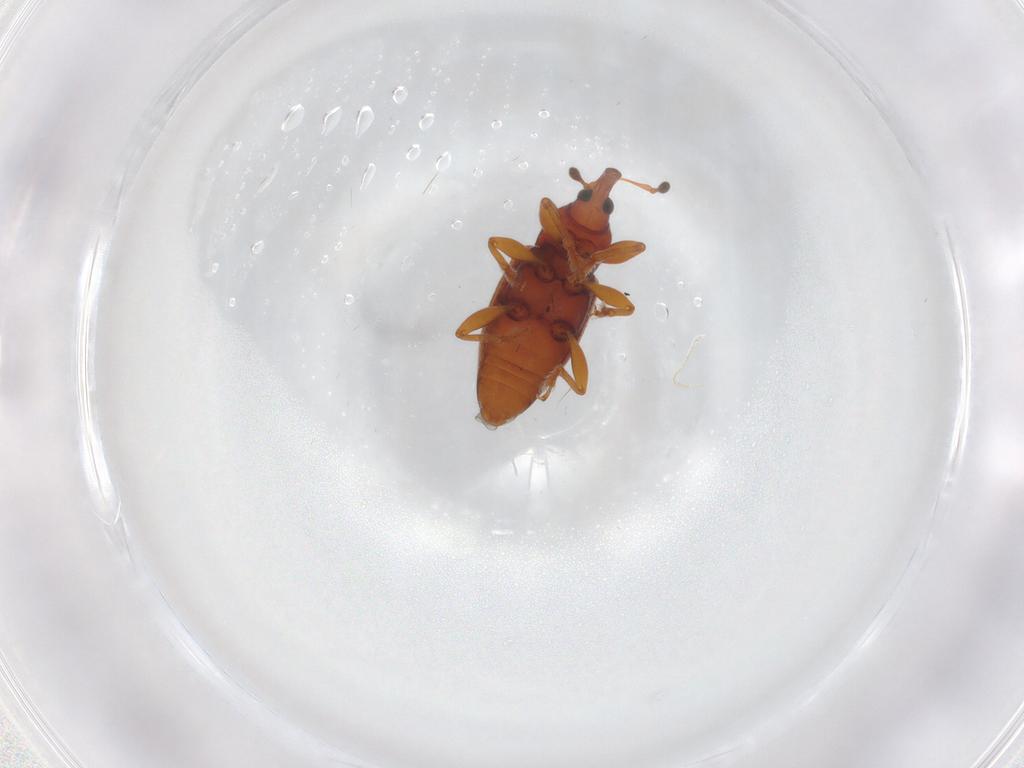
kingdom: Animalia
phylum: Arthropoda
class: Insecta
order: Coleoptera
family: Curculionidae
